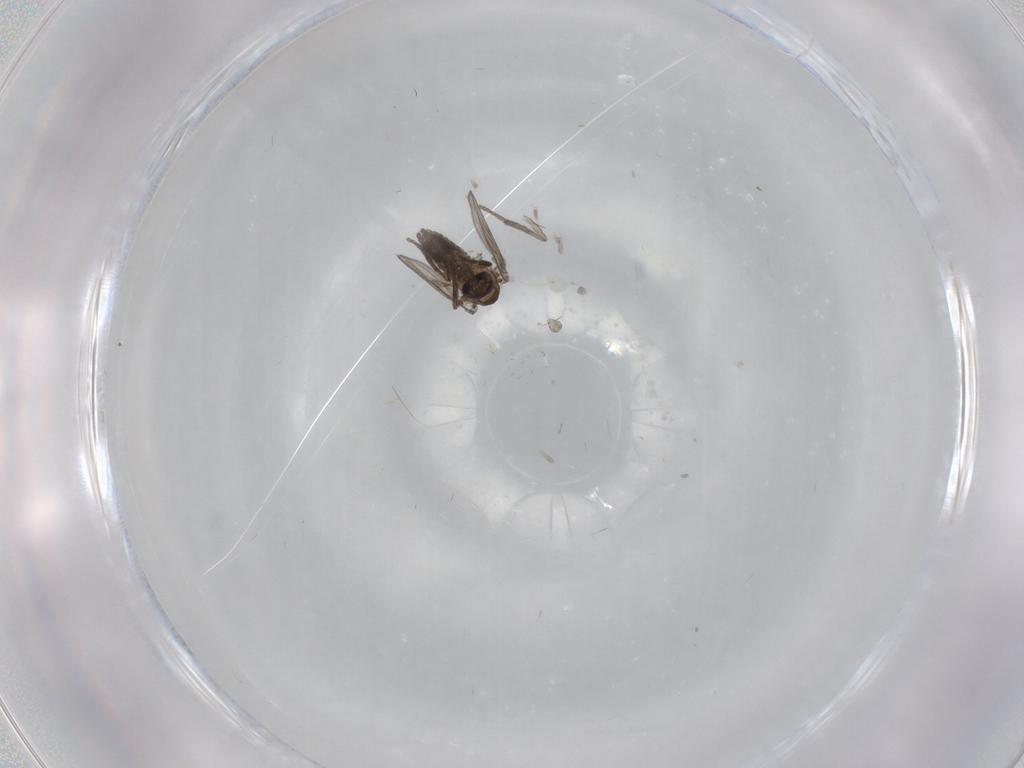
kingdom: Animalia
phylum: Arthropoda
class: Insecta
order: Diptera
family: Psychodidae
